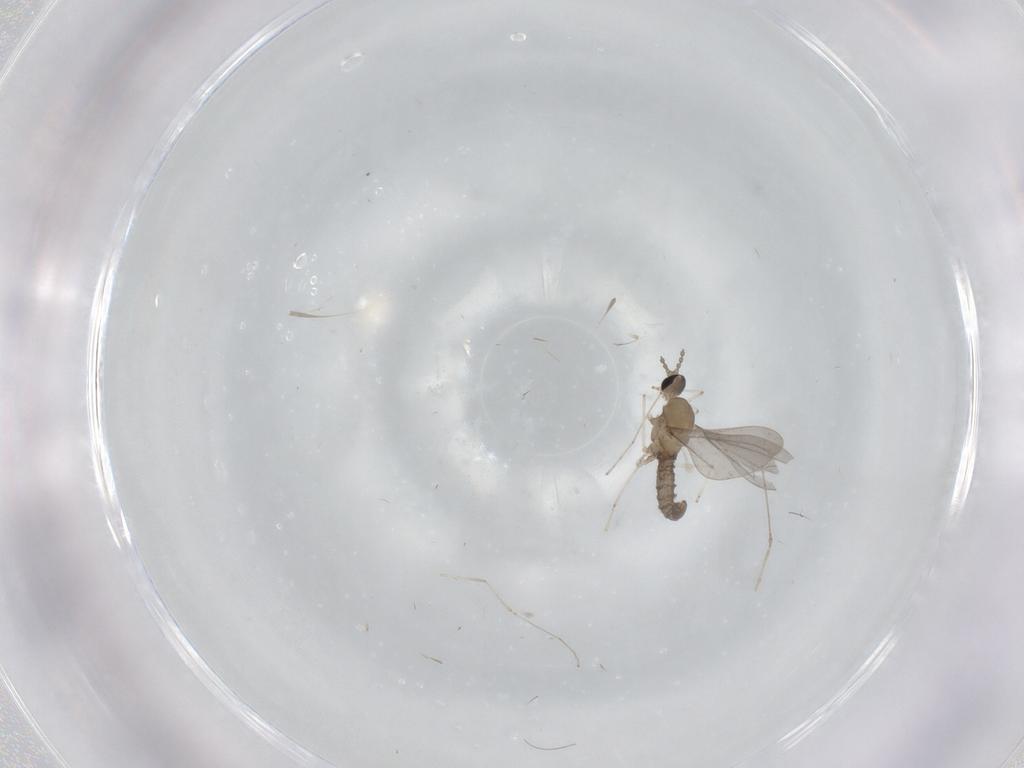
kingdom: Animalia
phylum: Arthropoda
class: Insecta
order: Diptera
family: Cecidomyiidae
